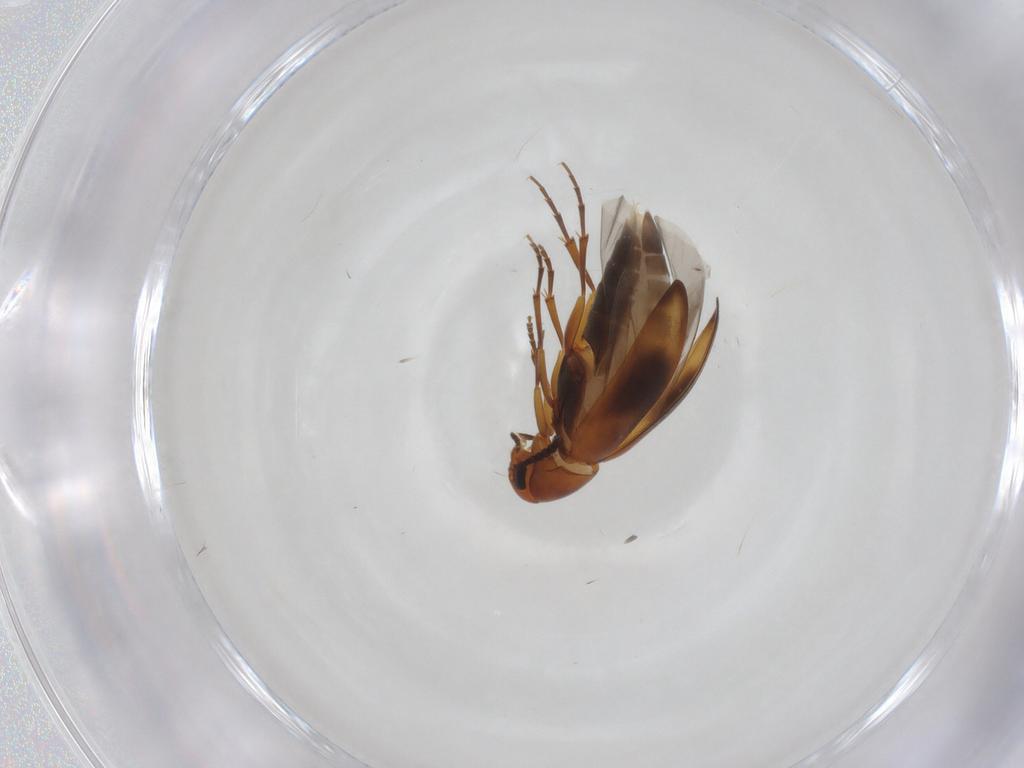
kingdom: Animalia
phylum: Arthropoda
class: Insecta
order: Coleoptera
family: Scraptiidae
